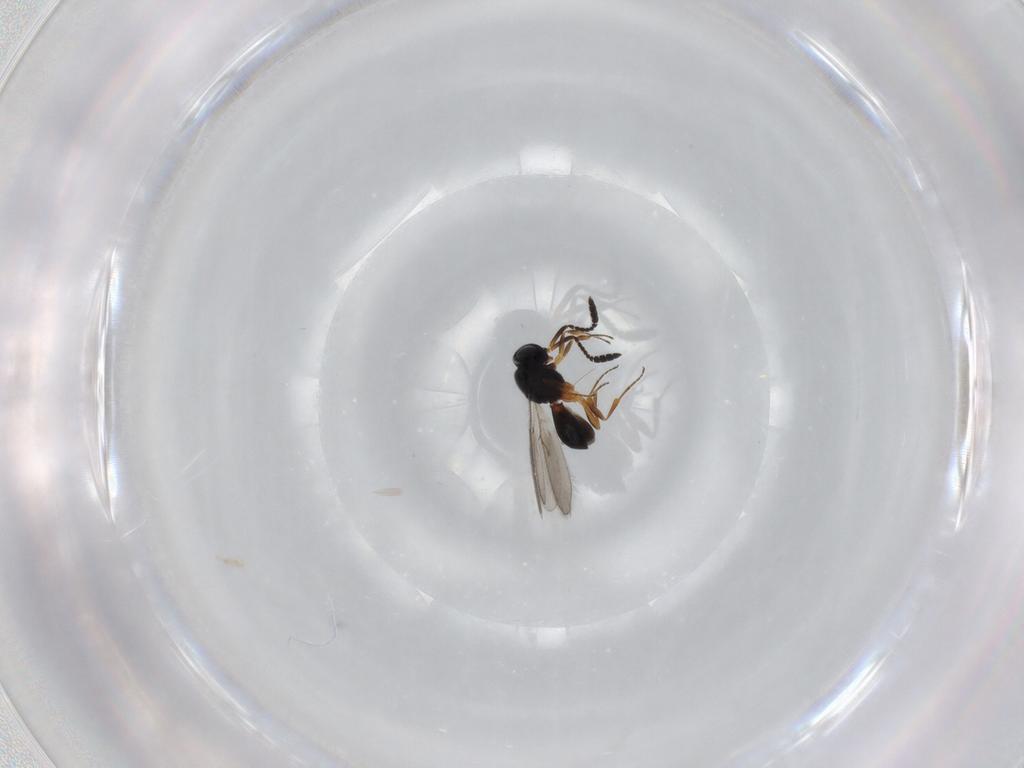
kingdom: Animalia
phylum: Arthropoda
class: Insecta
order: Hymenoptera
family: Scelionidae
